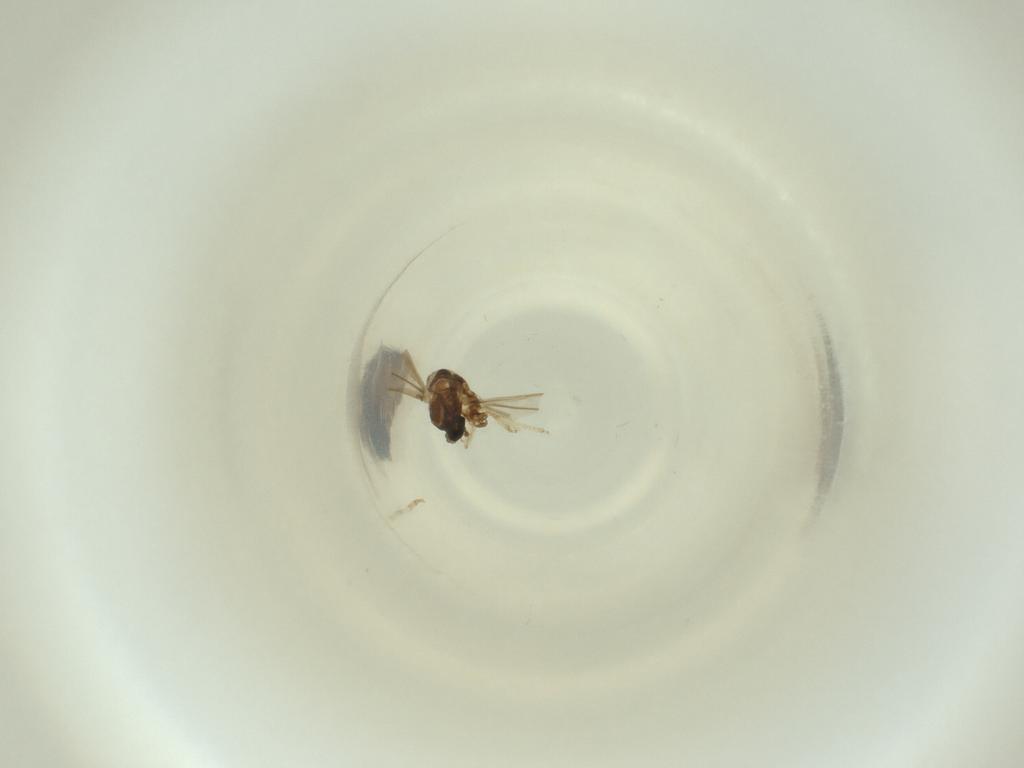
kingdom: Animalia
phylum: Arthropoda
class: Insecta
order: Diptera
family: Cecidomyiidae
